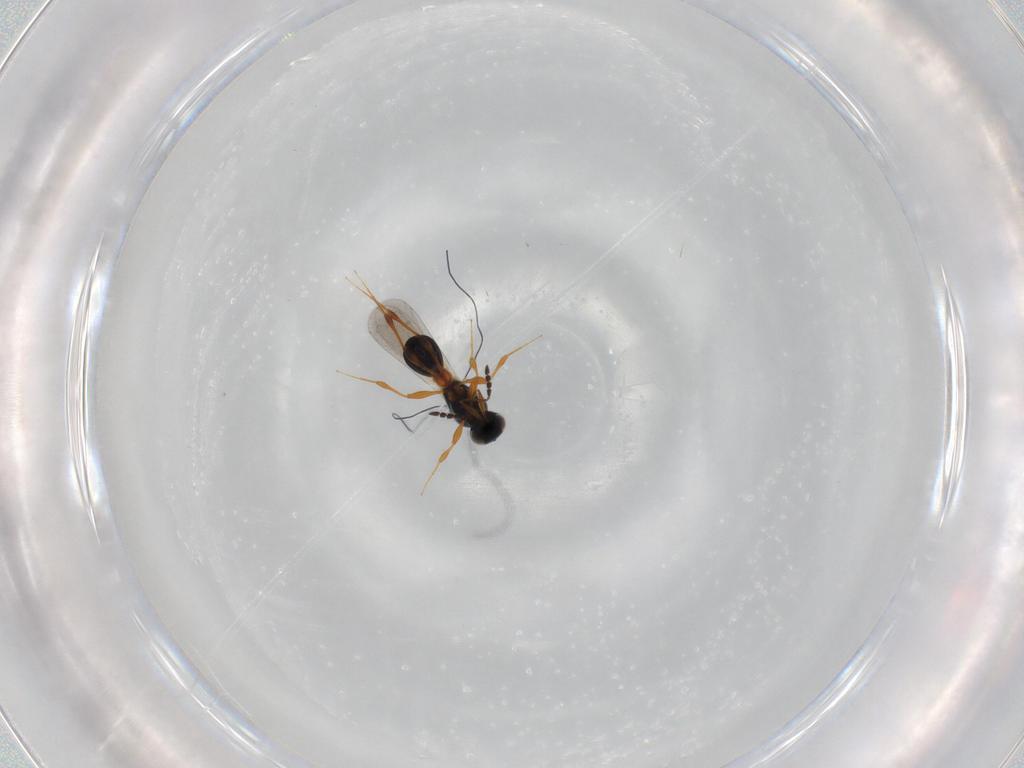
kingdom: Animalia
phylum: Arthropoda
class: Insecta
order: Hymenoptera
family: Platygastridae
